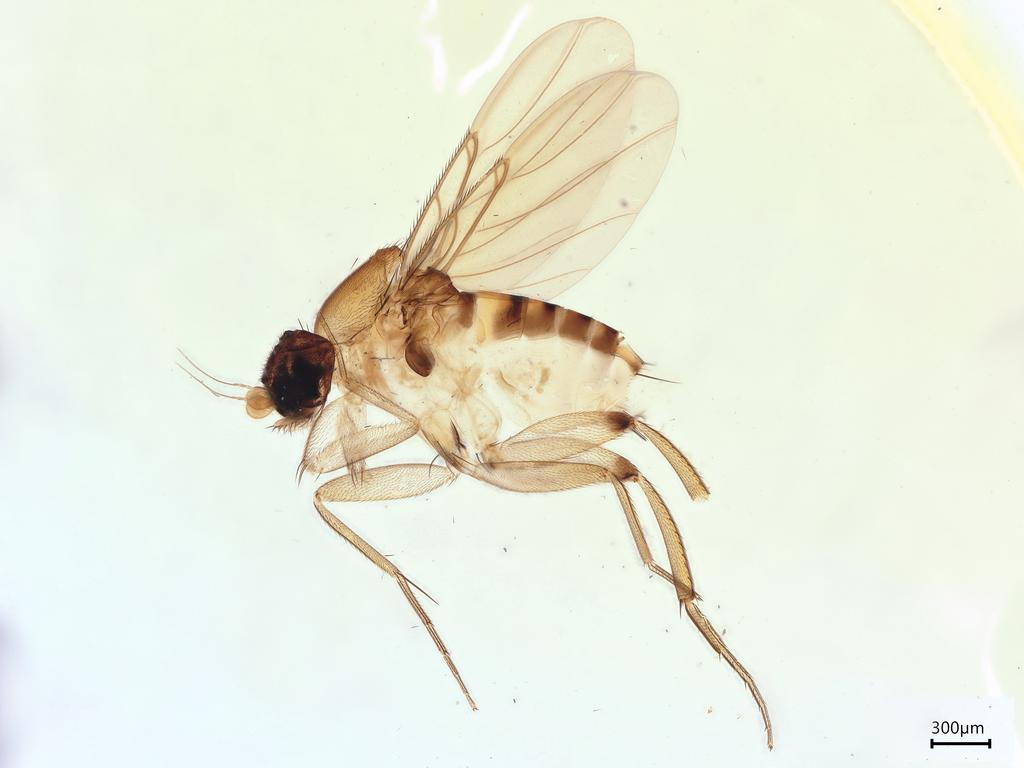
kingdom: Animalia
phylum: Arthropoda
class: Insecta
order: Diptera
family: Phoridae
